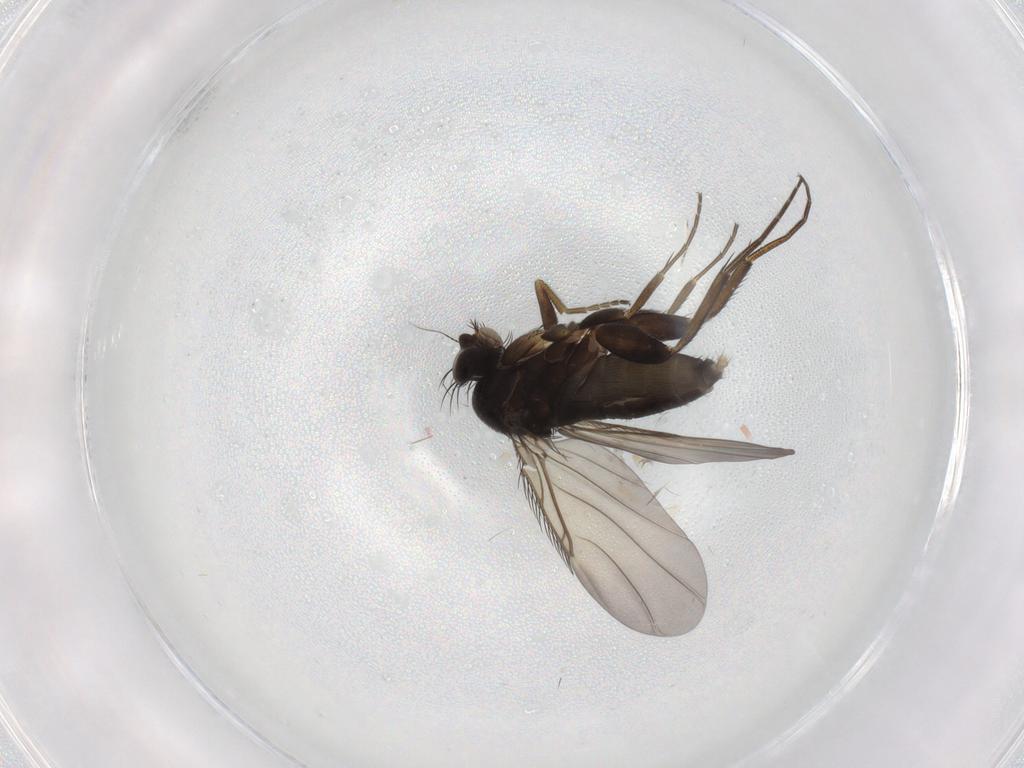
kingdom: Animalia
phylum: Arthropoda
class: Insecta
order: Diptera
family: Phoridae
